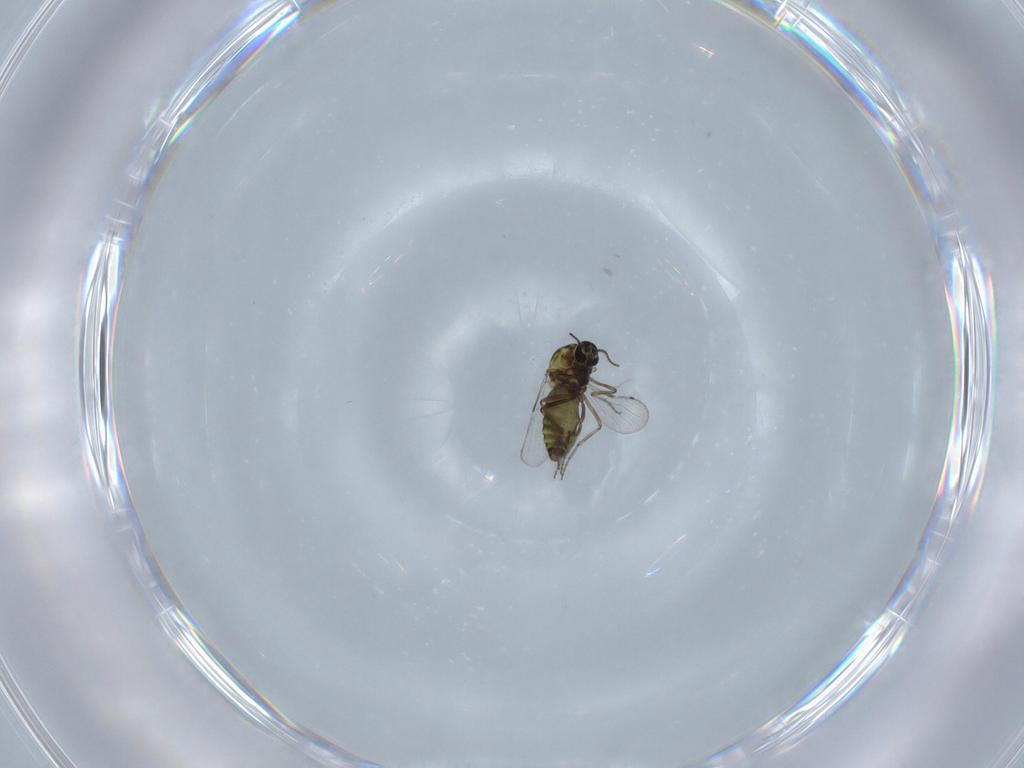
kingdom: Animalia
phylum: Arthropoda
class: Insecta
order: Diptera
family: Ceratopogonidae
